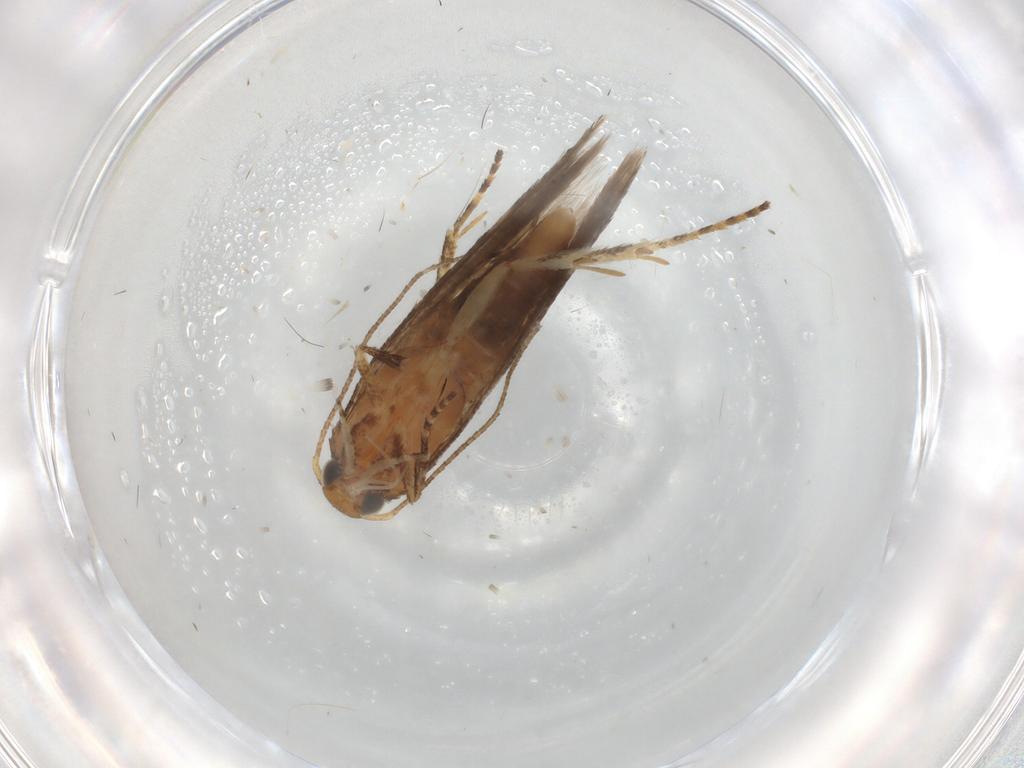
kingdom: Animalia
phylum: Arthropoda
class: Insecta
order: Lepidoptera
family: Gelechiidae
